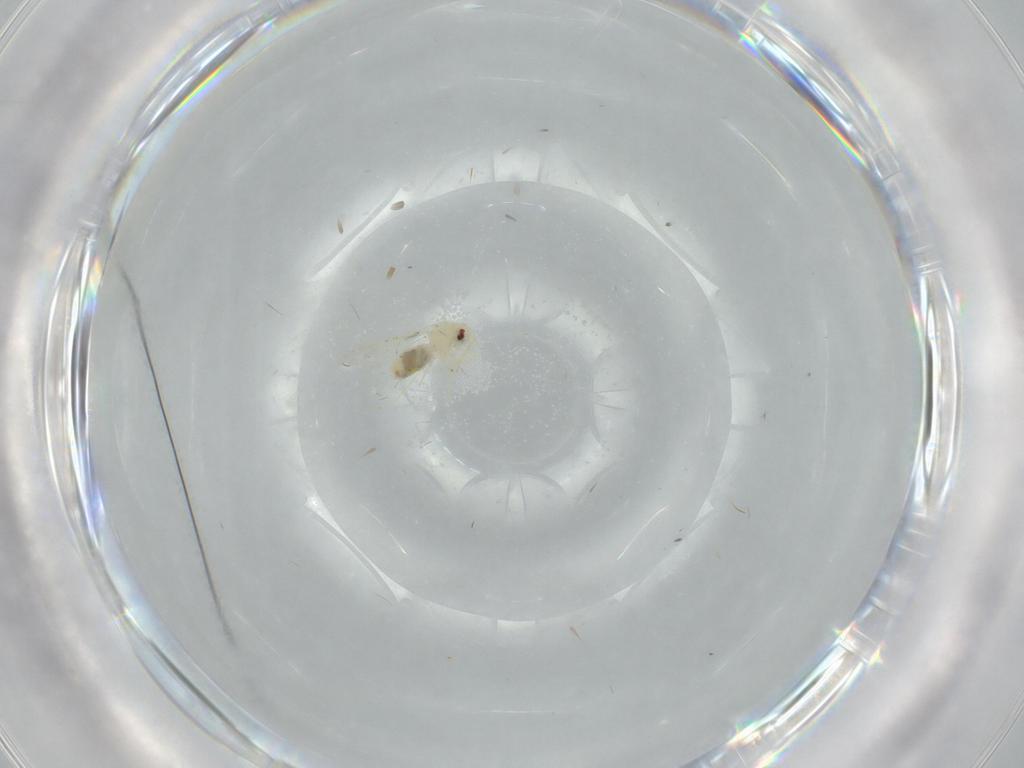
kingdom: Animalia
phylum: Arthropoda
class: Insecta
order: Hemiptera
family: Aleyrodidae
